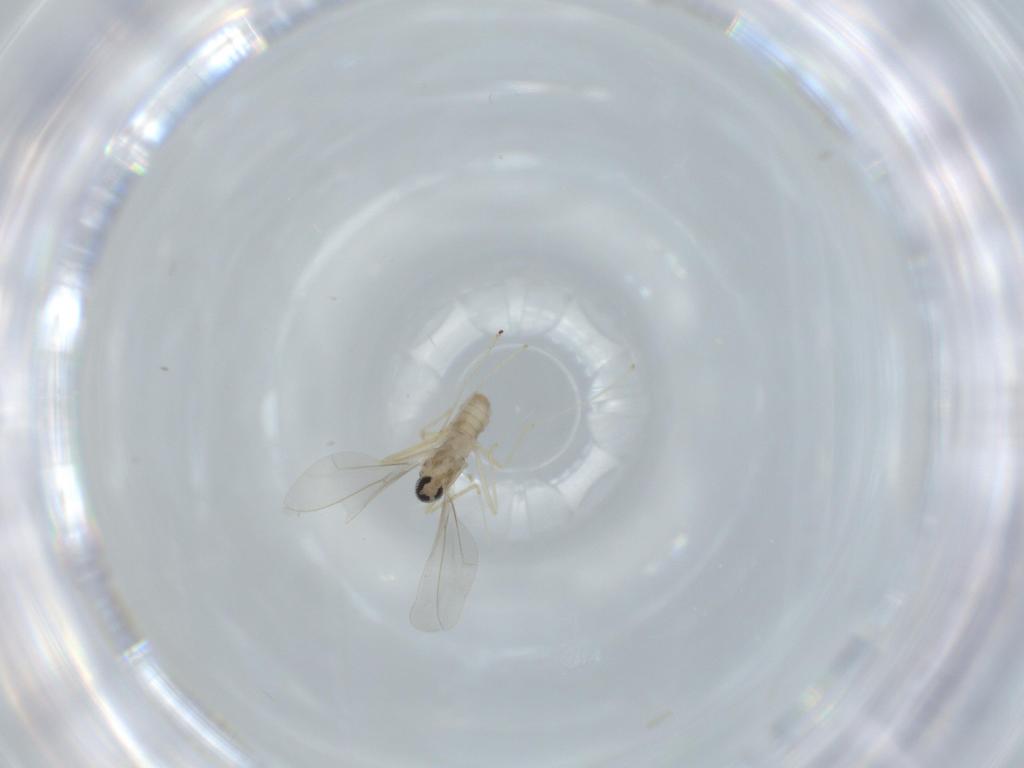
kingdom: Animalia
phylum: Arthropoda
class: Insecta
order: Diptera
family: Cecidomyiidae
